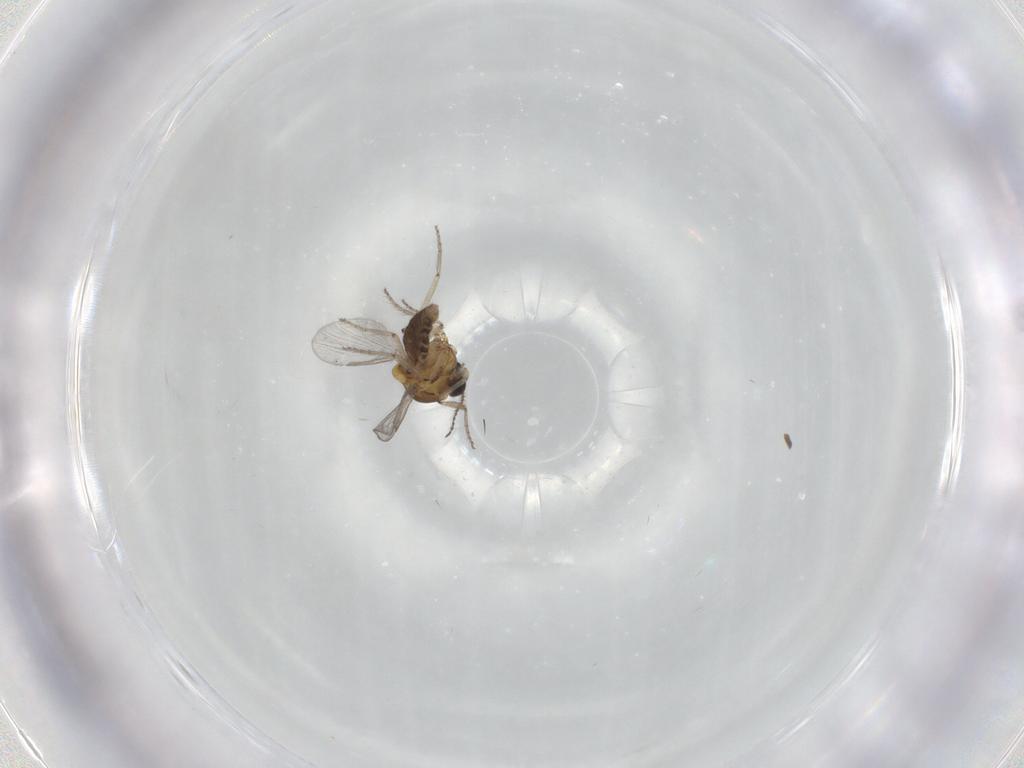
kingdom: Animalia
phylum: Arthropoda
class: Insecta
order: Diptera
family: Ceratopogonidae
